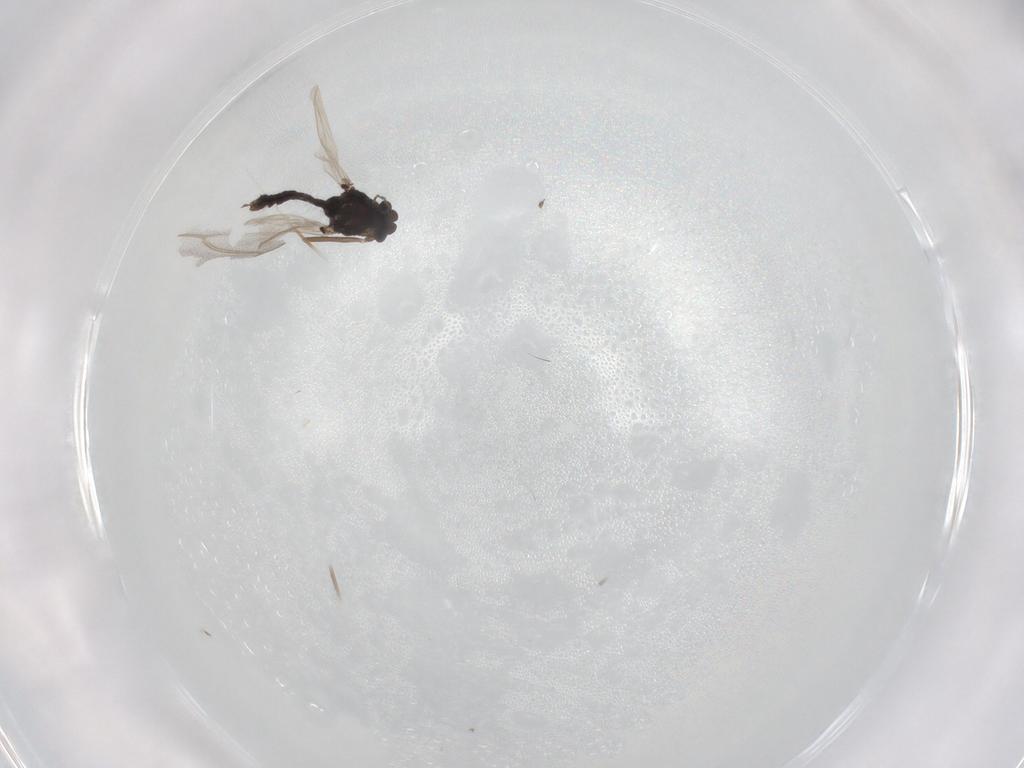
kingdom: Animalia
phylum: Arthropoda
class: Insecta
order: Diptera
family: Chironomidae
